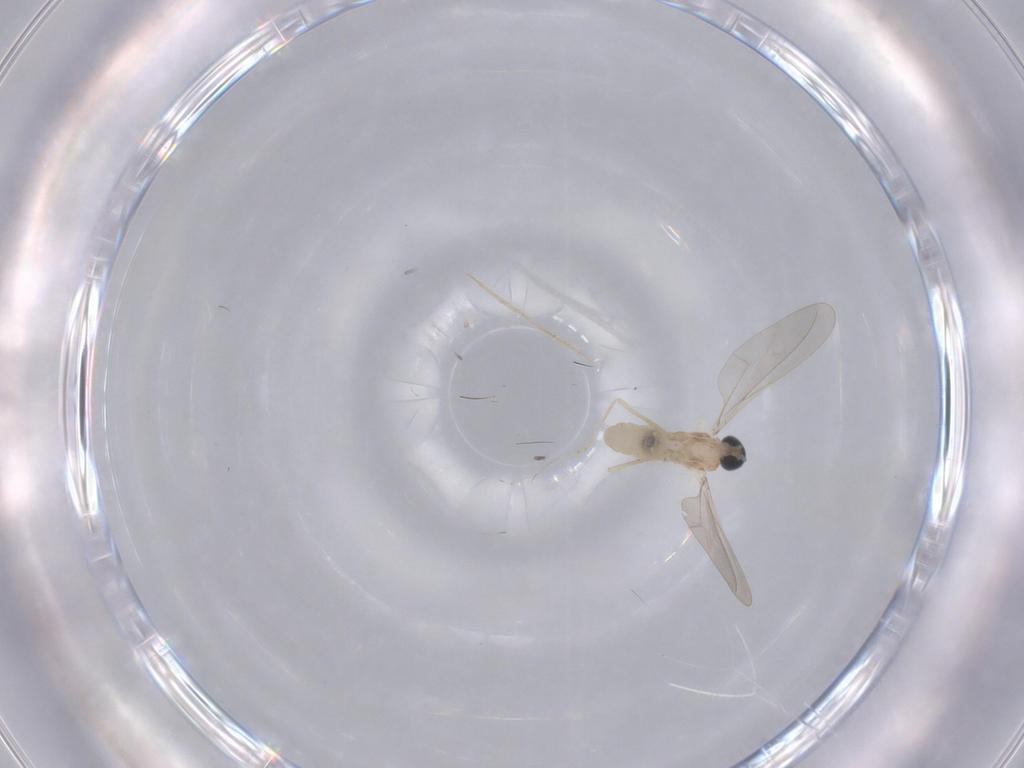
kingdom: Animalia
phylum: Arthropoda
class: Insecta
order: Diptera
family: Cecidomyiidae
